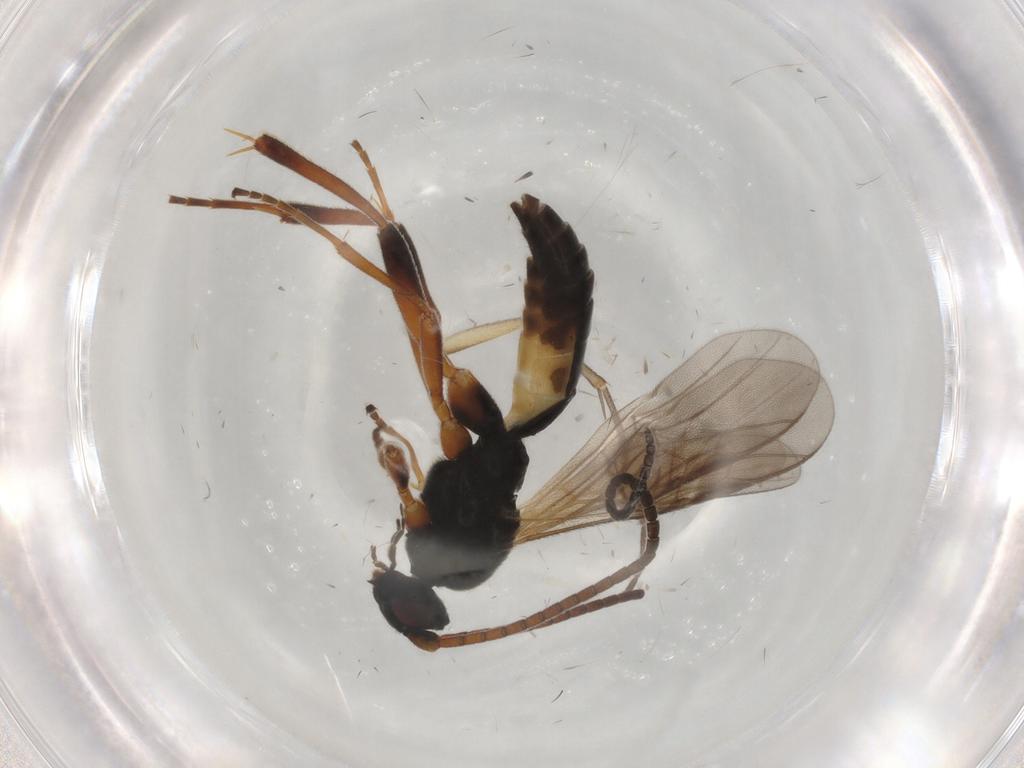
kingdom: Animalia
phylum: Arthropoda
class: Insecta
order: Hymenoptera
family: Braconidae
